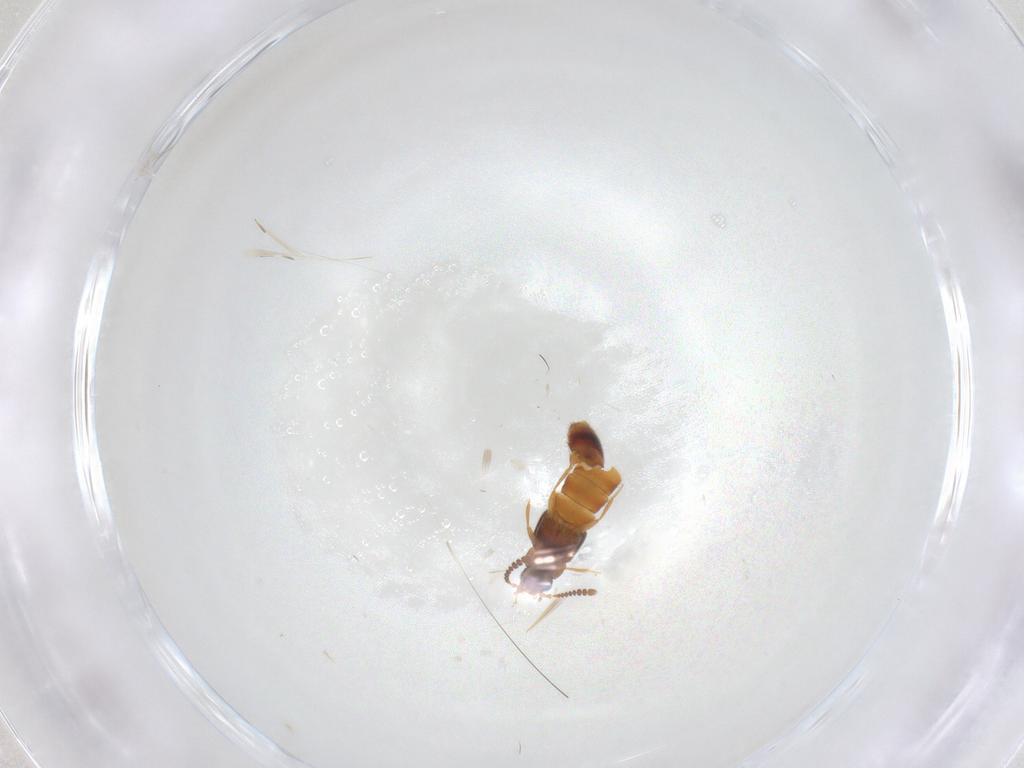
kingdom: Animalia
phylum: Arthropoda
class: Insecta
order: Coleoptera
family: Staphylinidae
